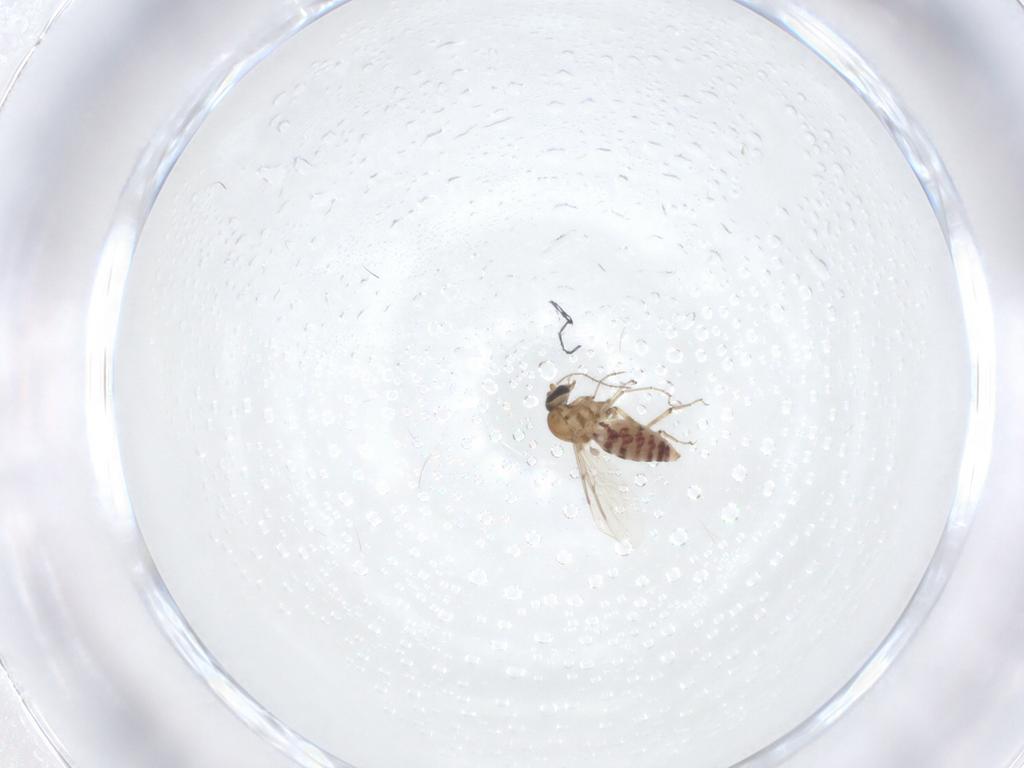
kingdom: Animalia
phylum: Arthropoda
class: Insecta
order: Diptera
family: Ceratopogonidae
